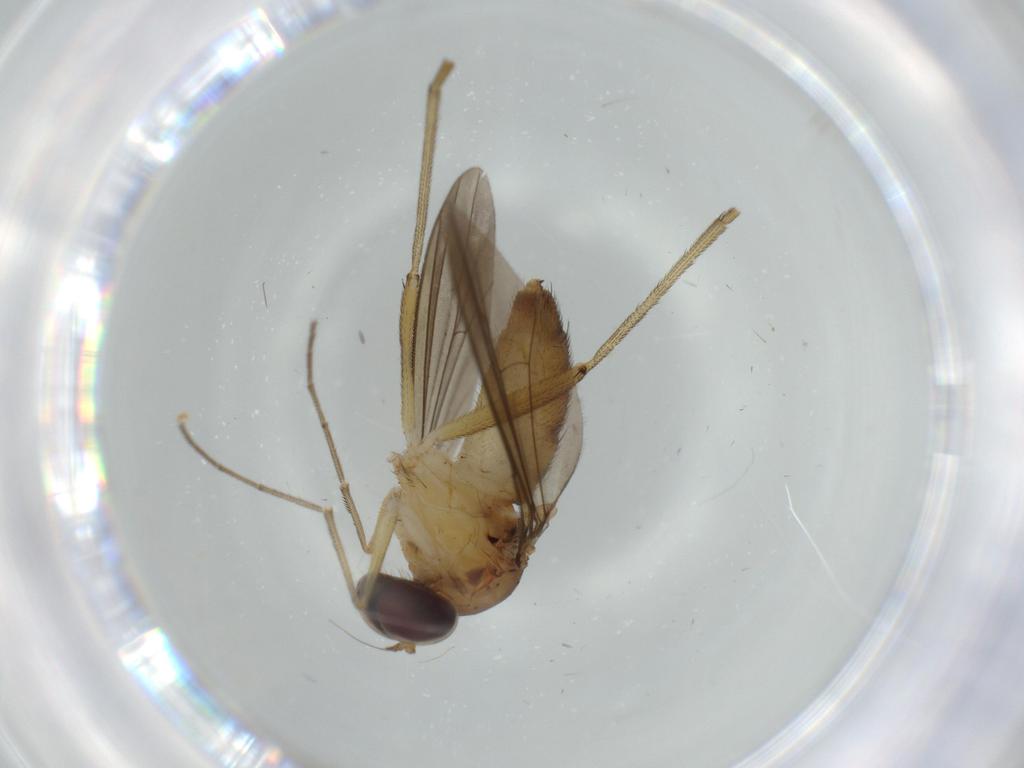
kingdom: Animalia
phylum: Arthropoda
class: Insecta
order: Diptera
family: Dolichopodidae
